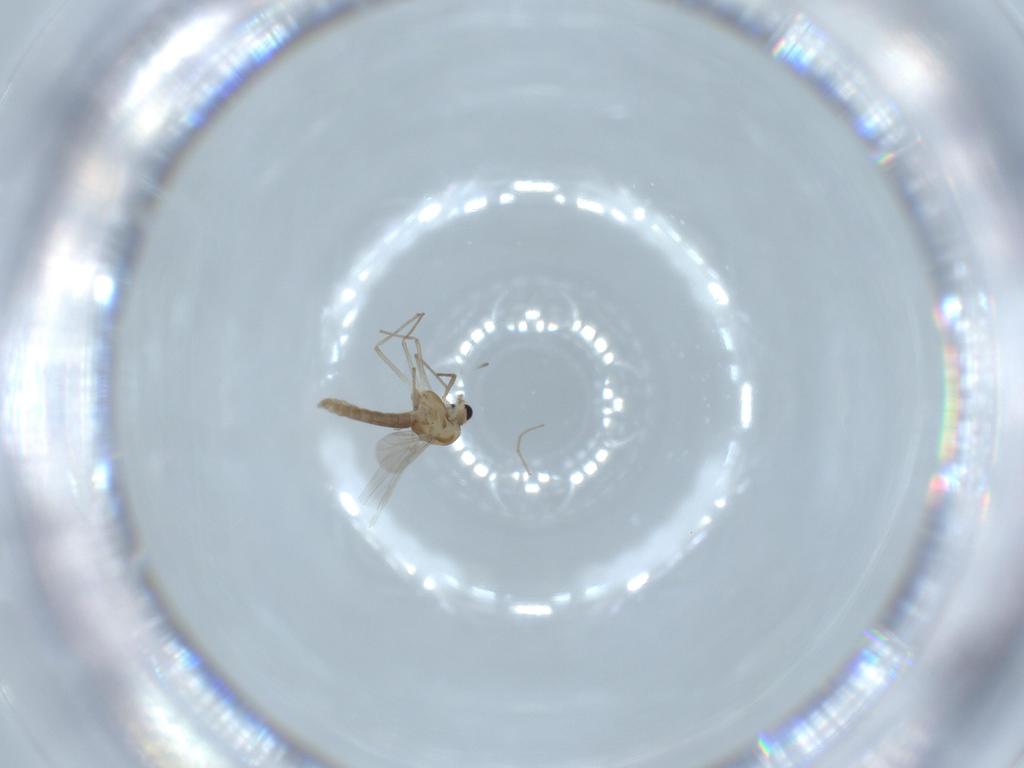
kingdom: Animalia
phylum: Arthropoda
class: Insecta
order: Diptera
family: Chironomidae
